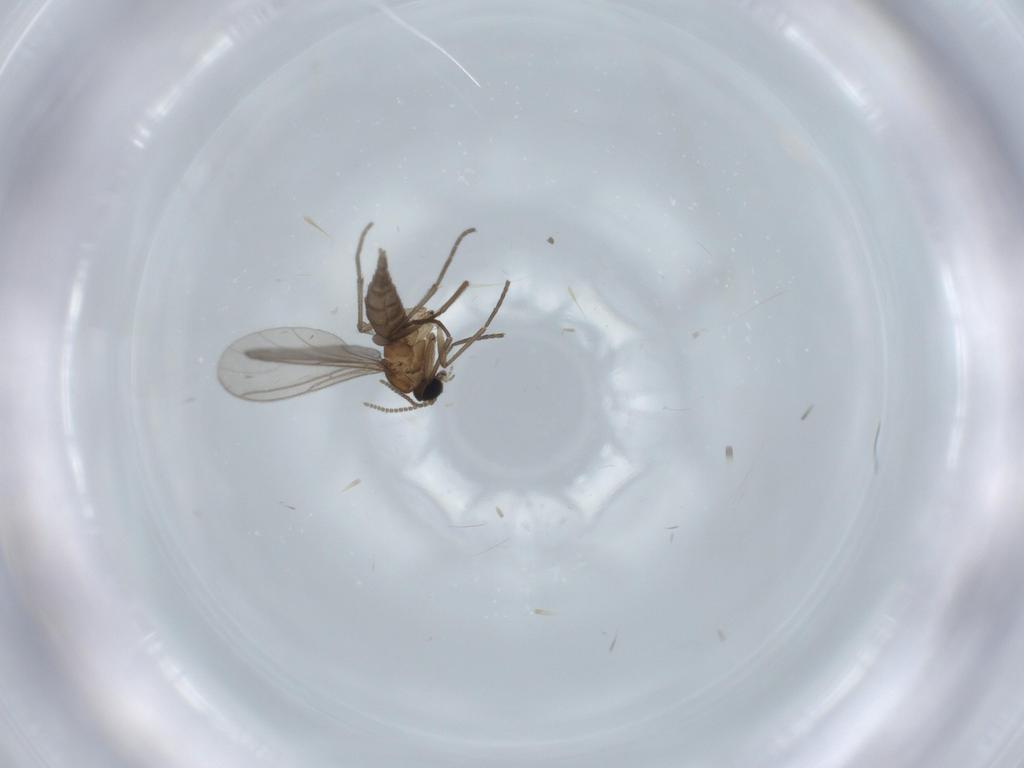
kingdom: Animalia
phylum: Arthropoda
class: Insecta
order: Diptera
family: Sciaridae
